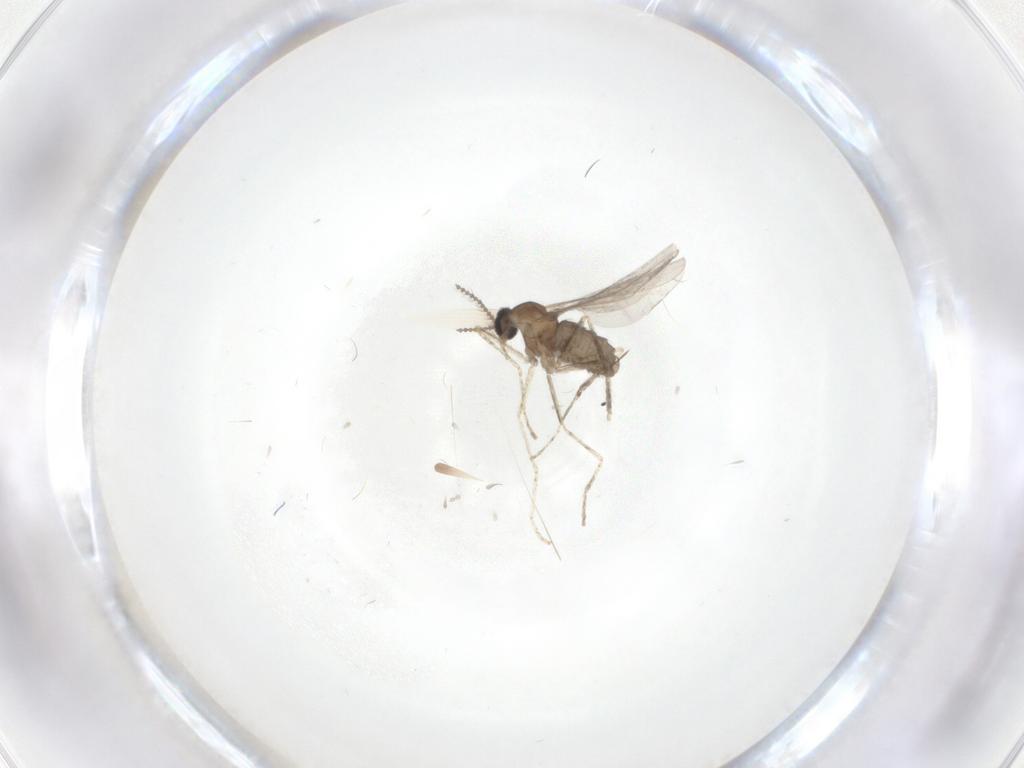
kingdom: Animalia
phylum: Arthropoda
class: Insecta
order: Diptera
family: Cecidomyiidae
